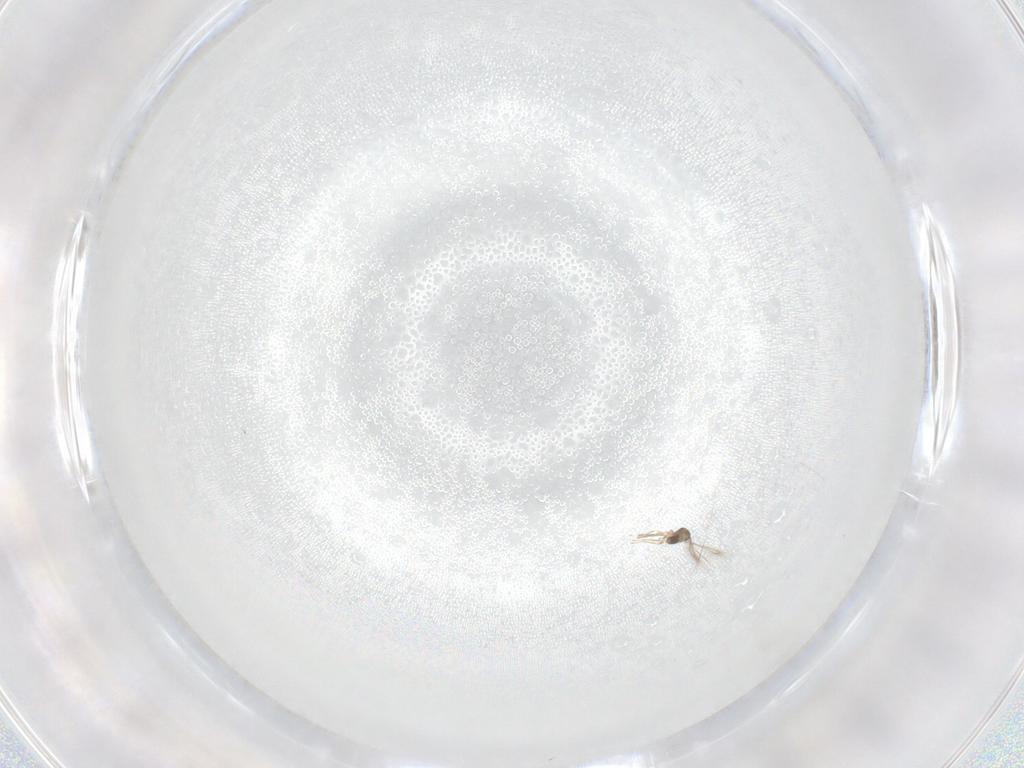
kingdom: Animalia
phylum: Arthropoda
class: Insecta
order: Hymenoptera
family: Mymaridae
